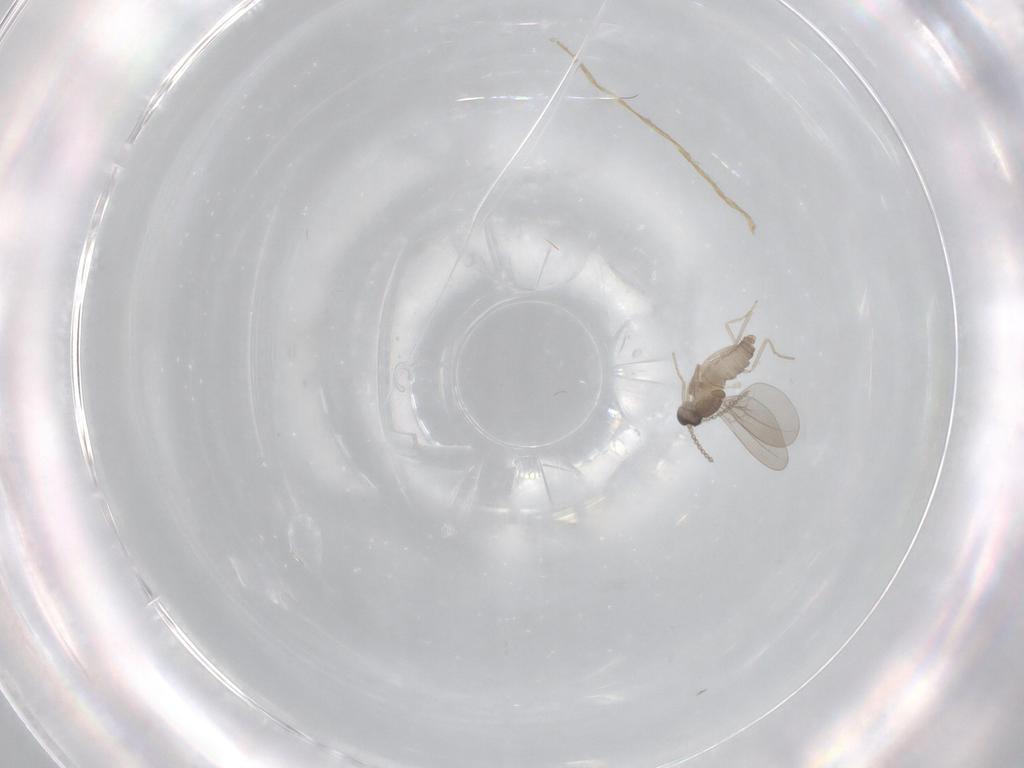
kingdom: Animalia
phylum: Arthropoda
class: Insecta
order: Diptera
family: Cecidomyiidae
